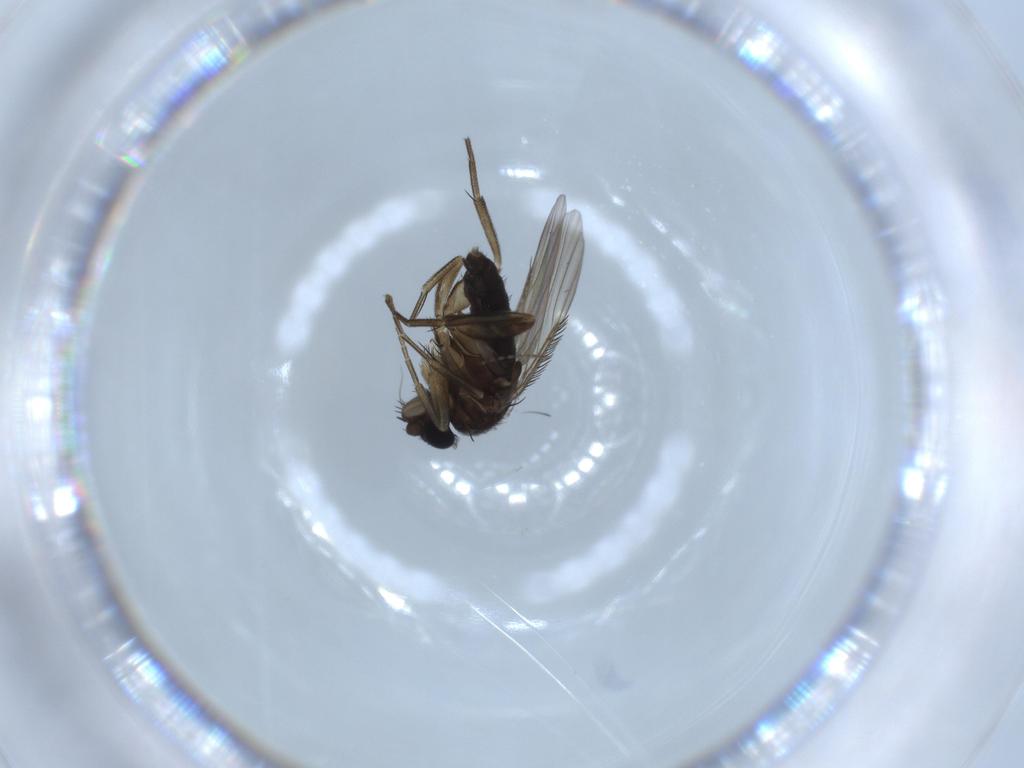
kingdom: Animalia
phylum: Arthropoda
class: Insecta
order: Diptera
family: Phoridae
